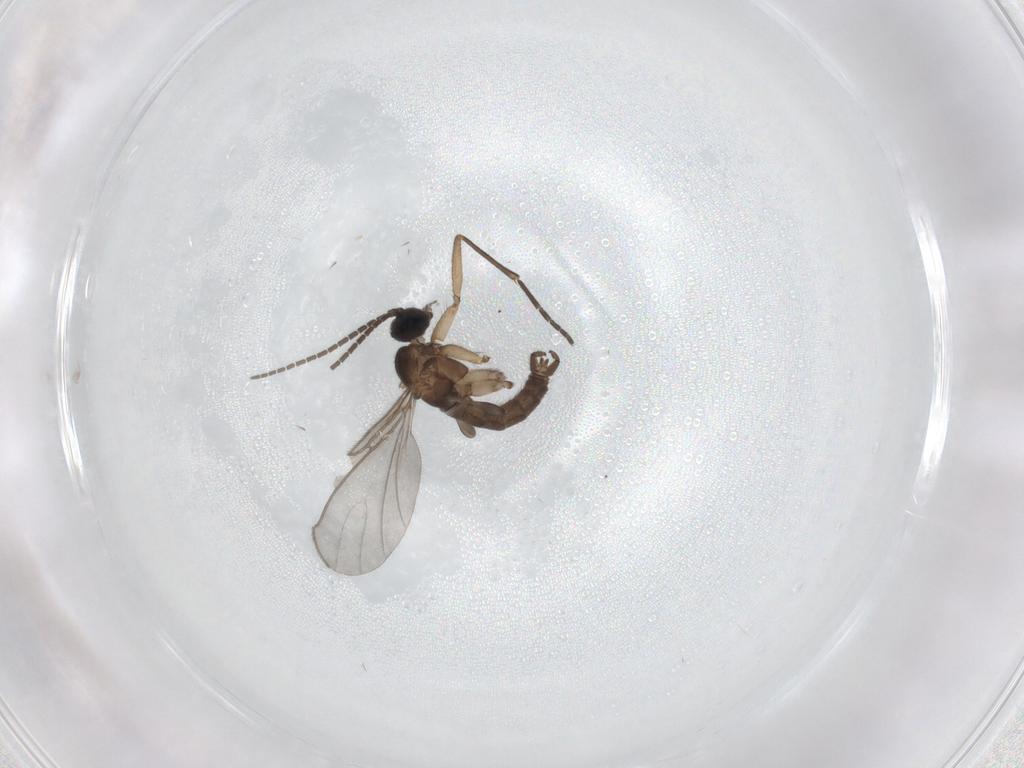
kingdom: Animalia
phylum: Arthropoda
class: Insecta
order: Diptera
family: Sciaridae
